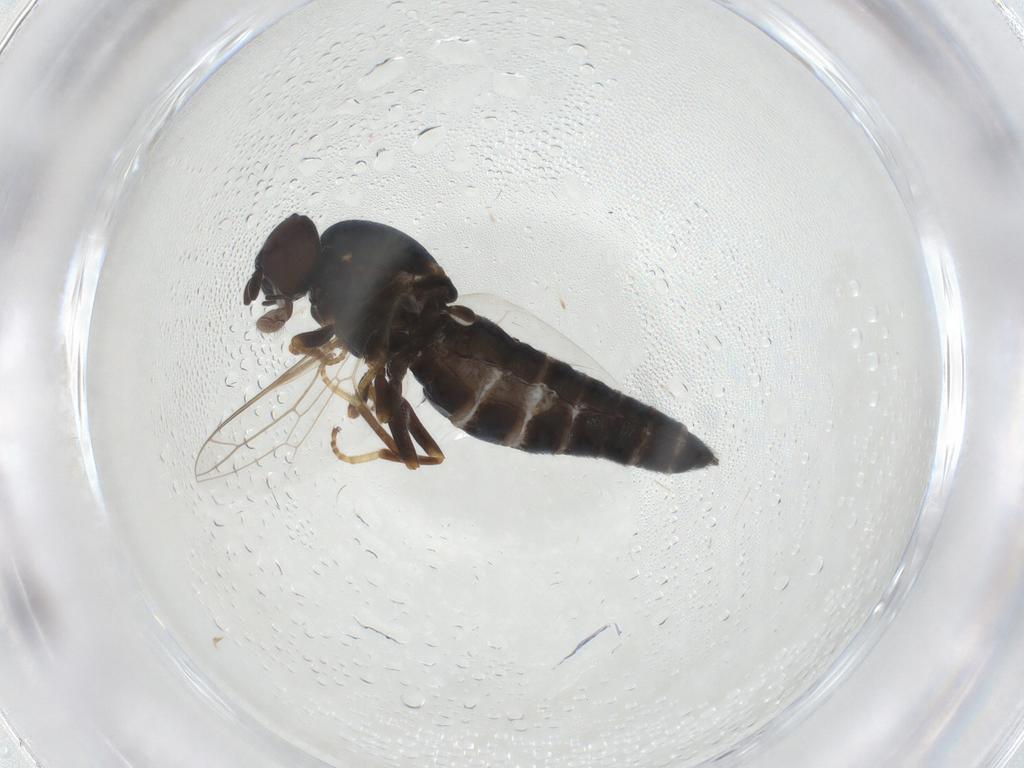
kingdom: Animalia
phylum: Arthropoda
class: Insecta
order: Diptera
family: Scenopinidae
